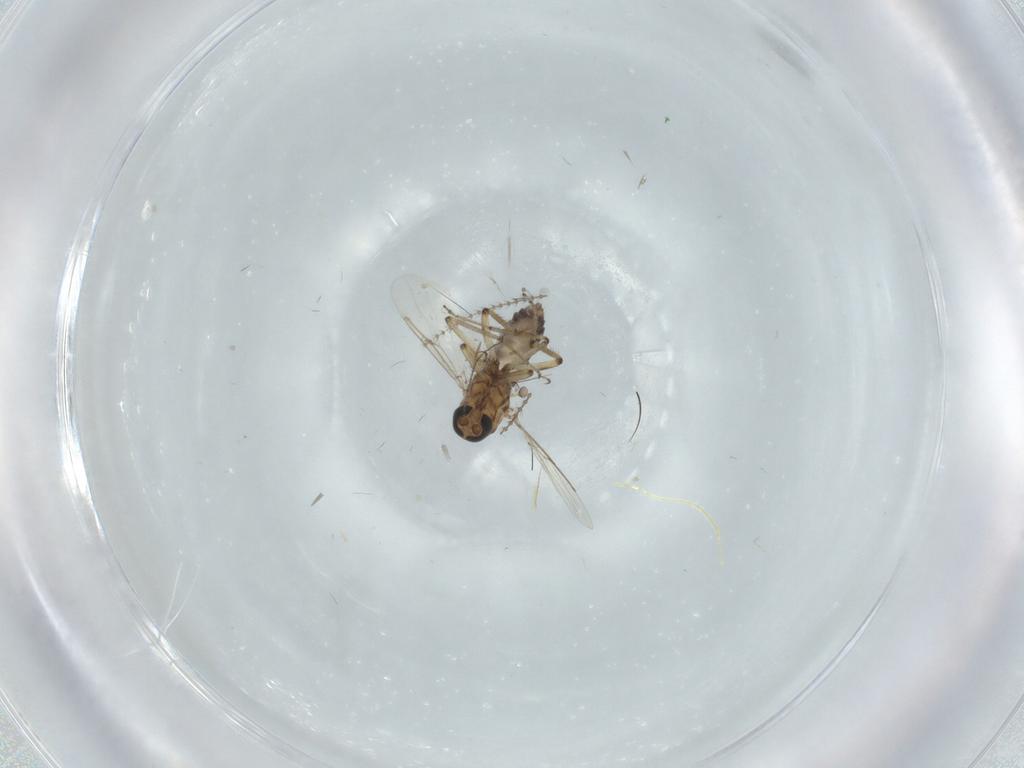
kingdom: Animalia
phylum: Arthropoda
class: Insecta
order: Diptera
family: Ceratopogonidae
